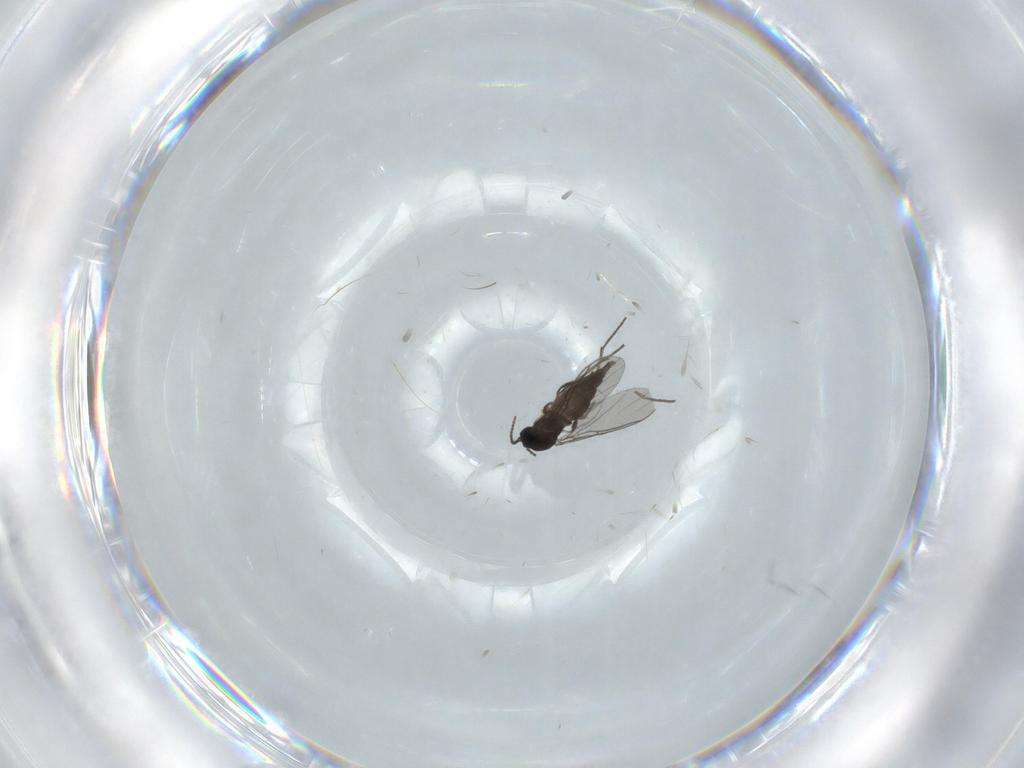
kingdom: Animalia
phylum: Arthropoda
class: Insecta
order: Diptera
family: Sciaridae
